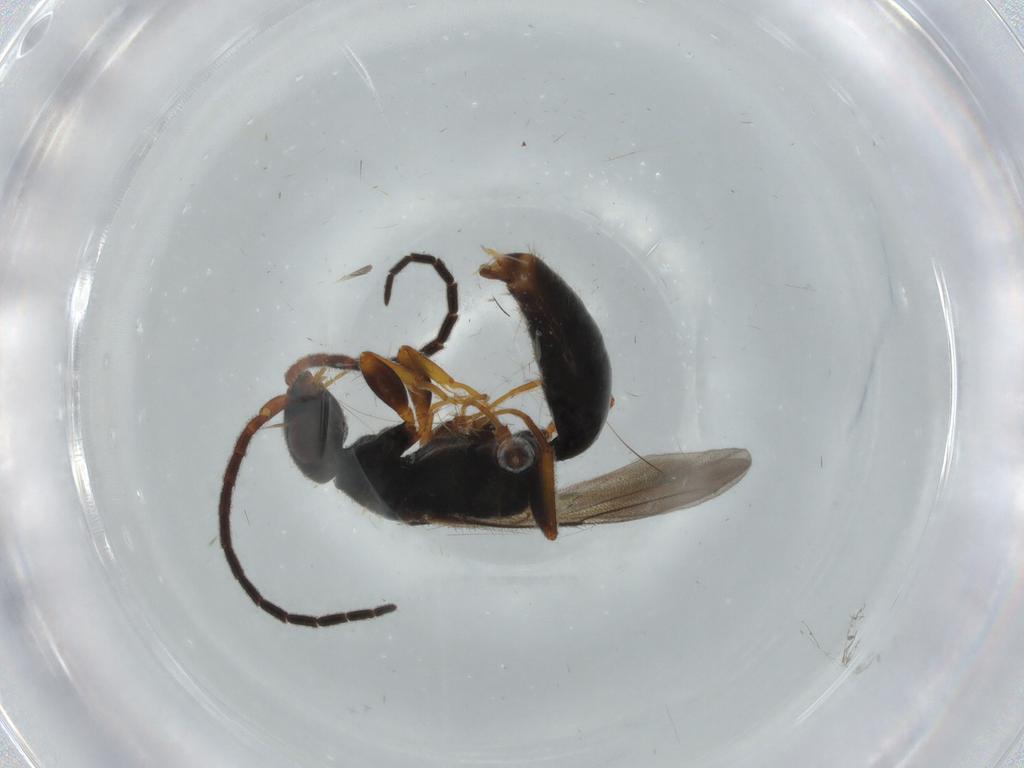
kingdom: Animalia
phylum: Arthropoda
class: Insecta
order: Hymenoptera
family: Bethylidae
